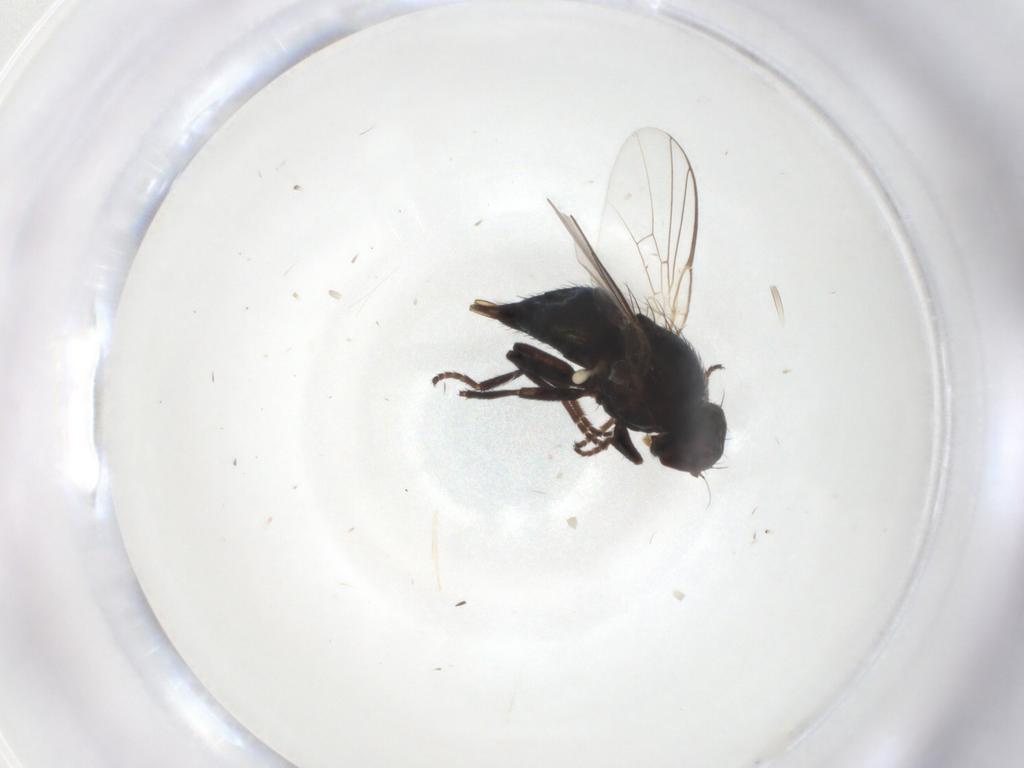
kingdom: Animalia
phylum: Arthropoda
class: Insecta
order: Diptera
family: Agromyzidae
